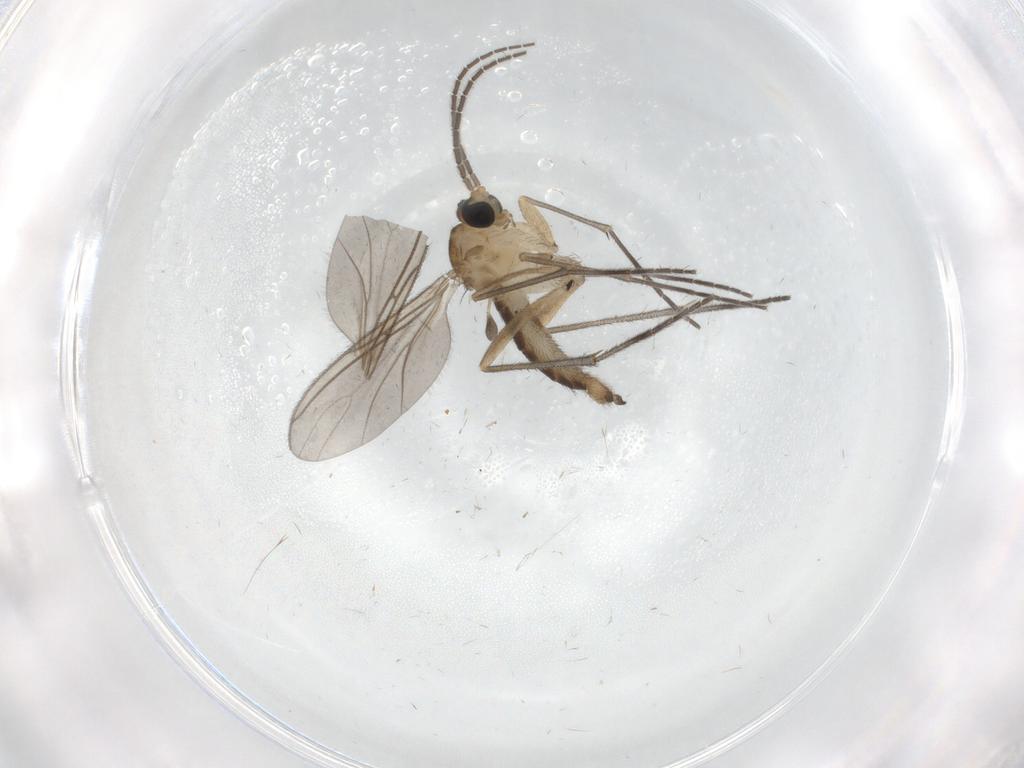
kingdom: Animalia
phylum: Arthropoda
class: Insecta
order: Diptera
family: Sciaridae
